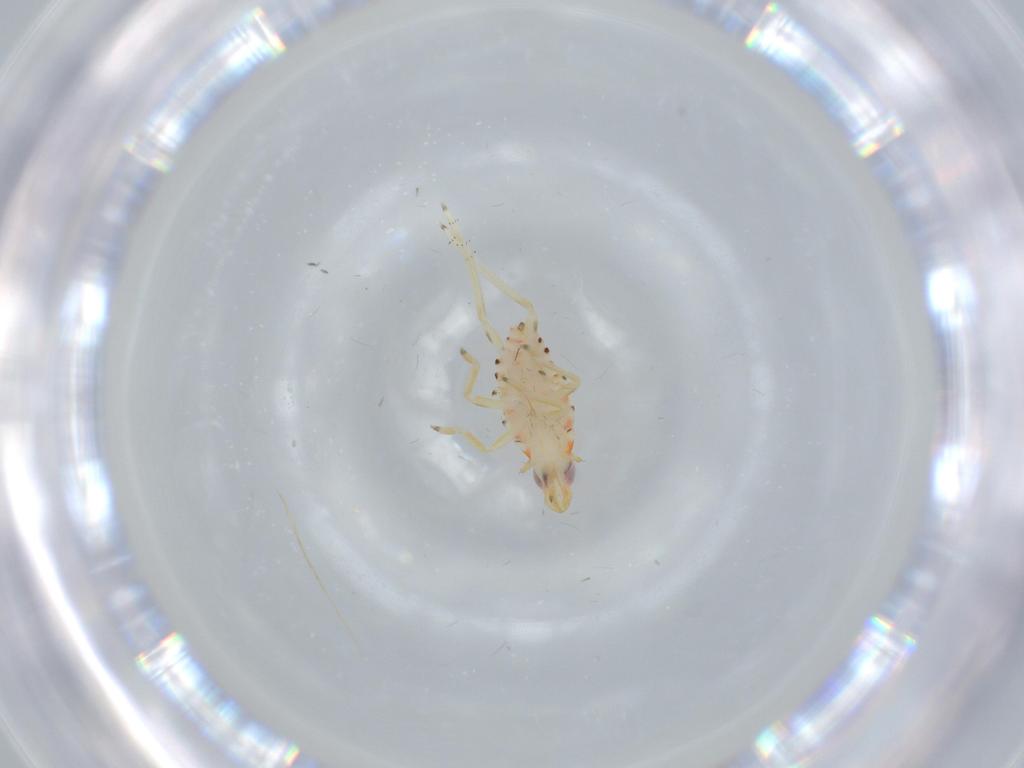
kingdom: Animalia
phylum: Arthropoda
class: Insecta
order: Hemiptera
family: Tropiduchidae
